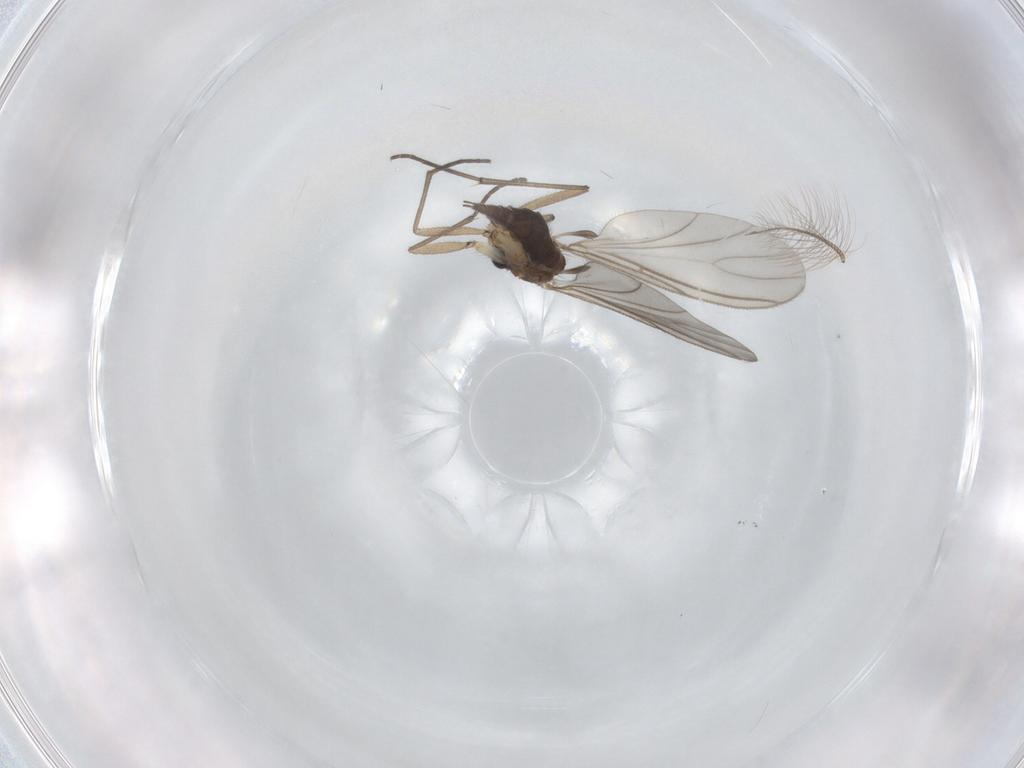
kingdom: Animalia
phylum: Arthropoda
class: Insecta
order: Diptera
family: Sciaridae
